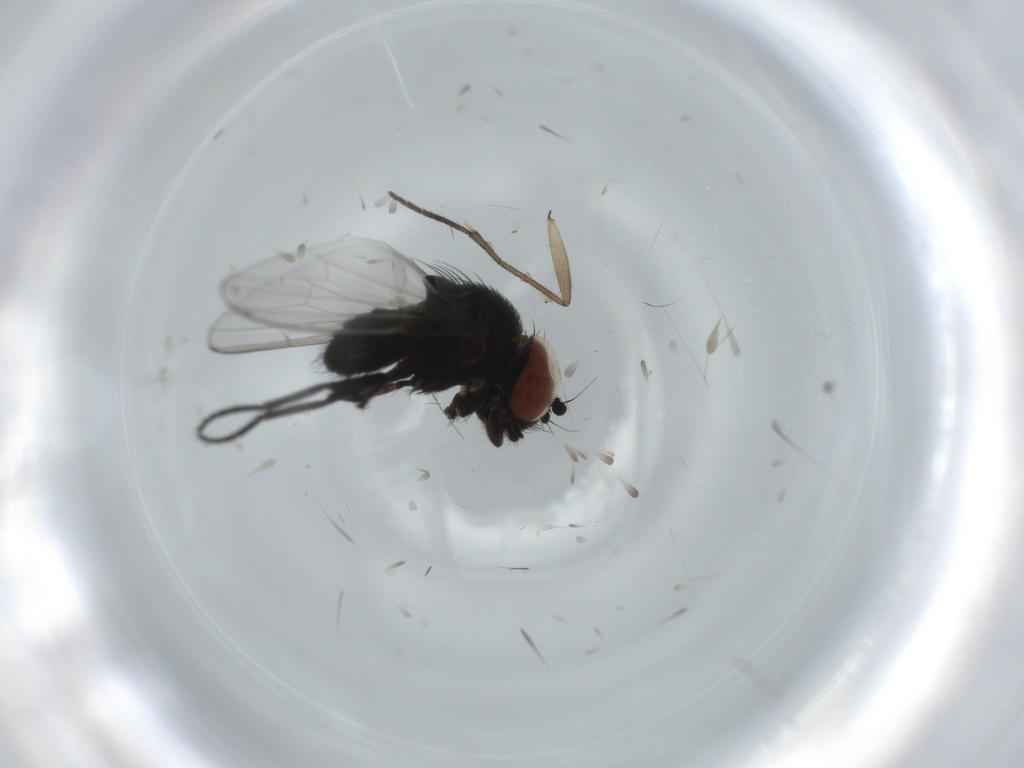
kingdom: Animalia
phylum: Arthropoda
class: Insecta
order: Diptera
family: Milichiidae
